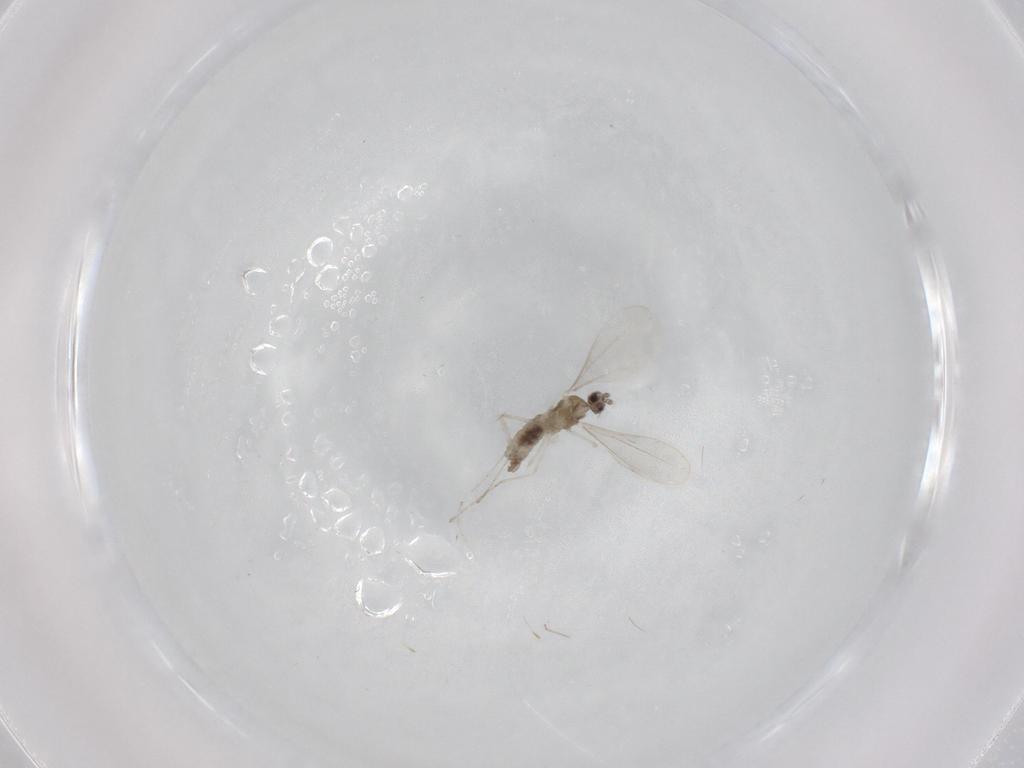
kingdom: Animalia
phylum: Arthropoda
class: Insecta
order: Diptera
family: Cecidomyiidae
